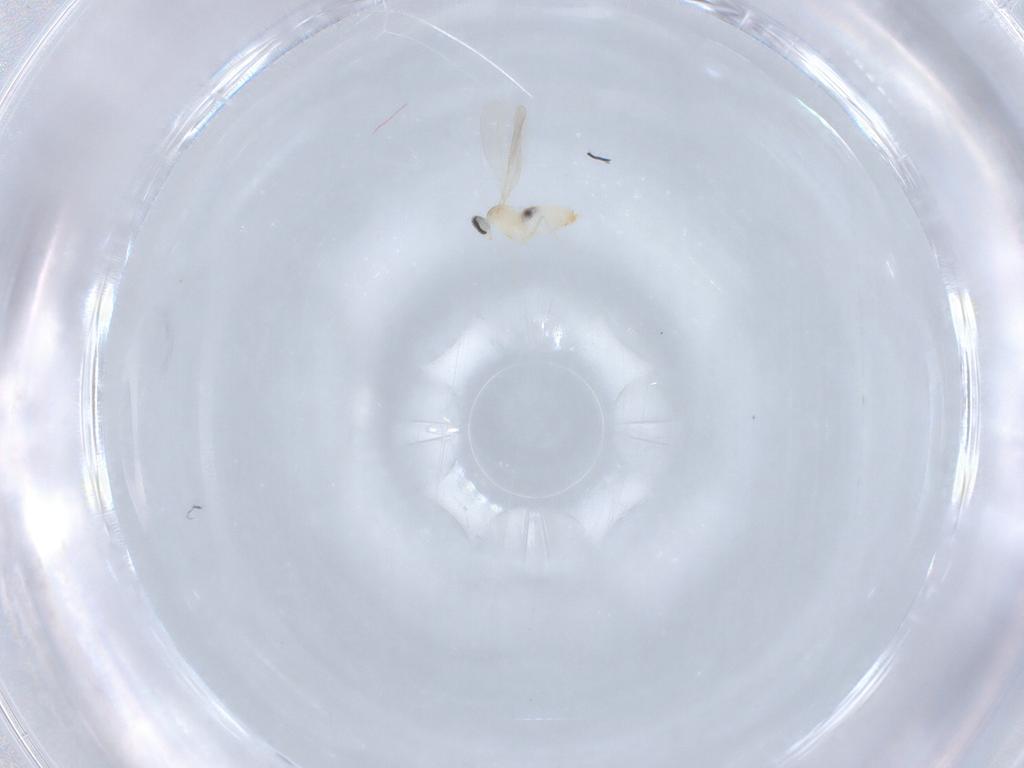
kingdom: Animalia
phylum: Arthropoda
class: Insecta
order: Diptera
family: Cecidomyiidae
